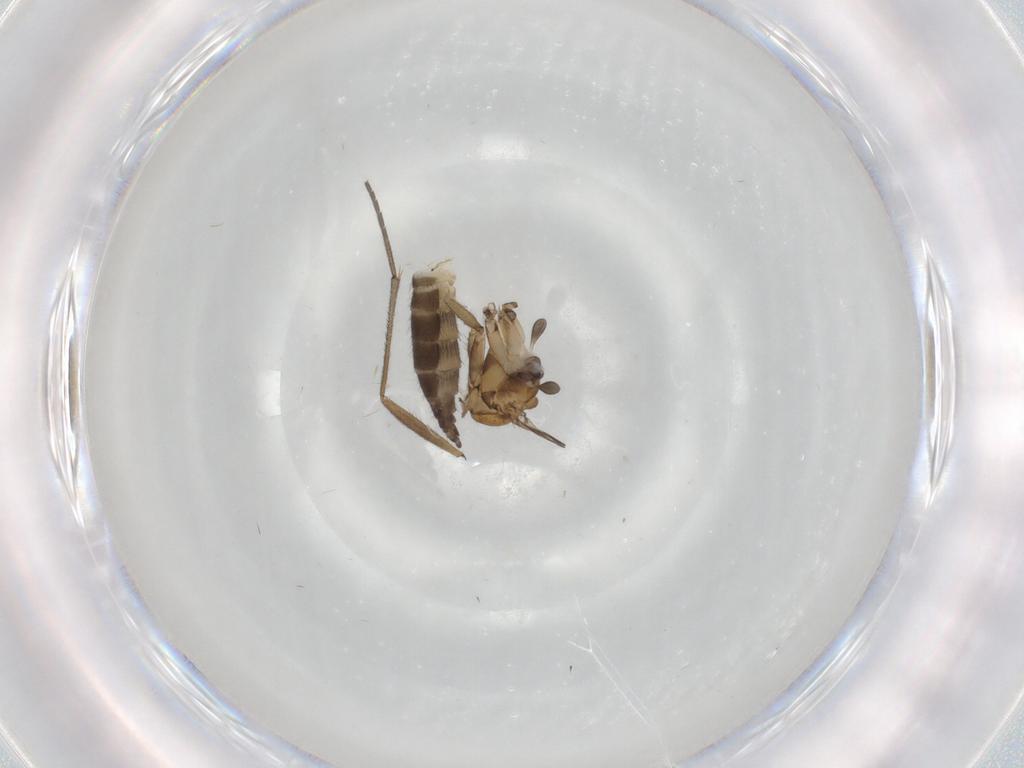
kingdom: Animalia
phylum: Arthropoda
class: Insecta
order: Diptera
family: Sciaridae
